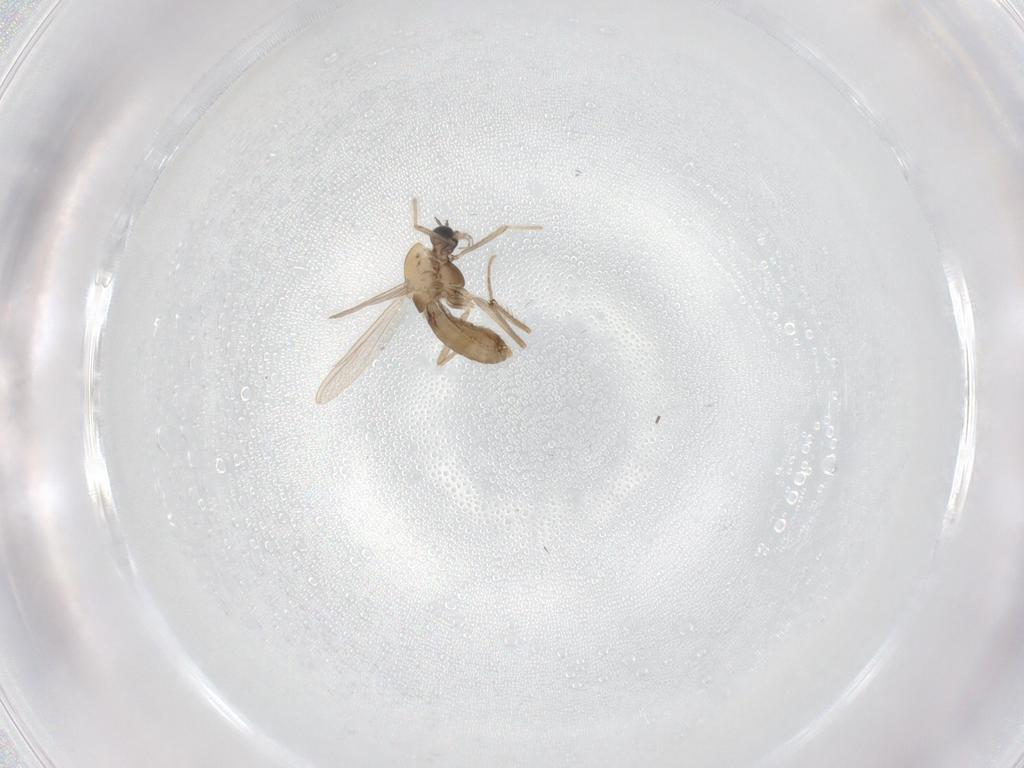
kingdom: Animalia
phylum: Arthropoda
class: Insecta
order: Diptera
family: Chironomidae
